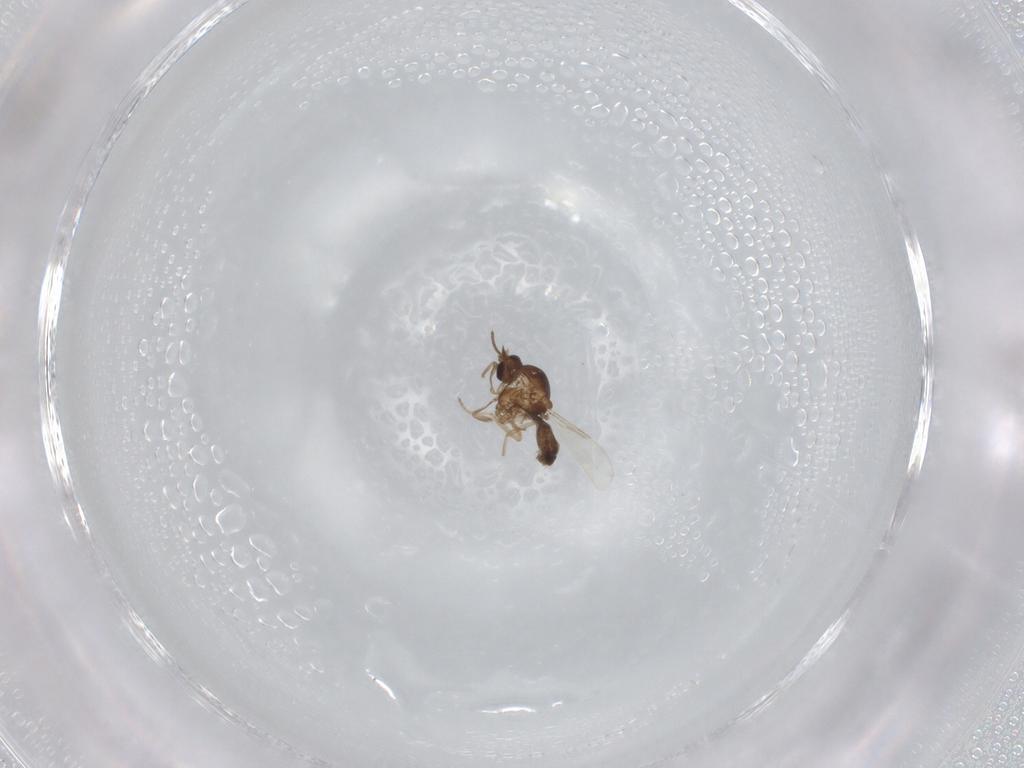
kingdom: Animalia
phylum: Arthropoda
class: Insecta
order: Diptera
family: Ceratopogonidae
